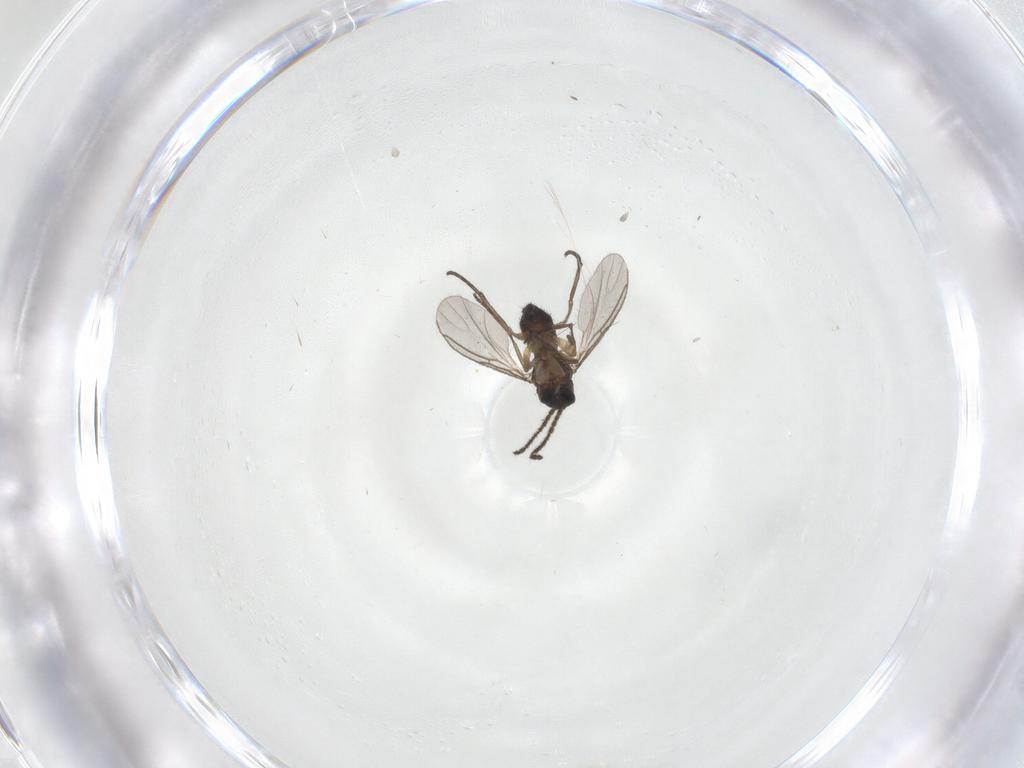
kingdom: Animalia
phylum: Arthropoda
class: Insecta
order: Diptera
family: Sciaridae
